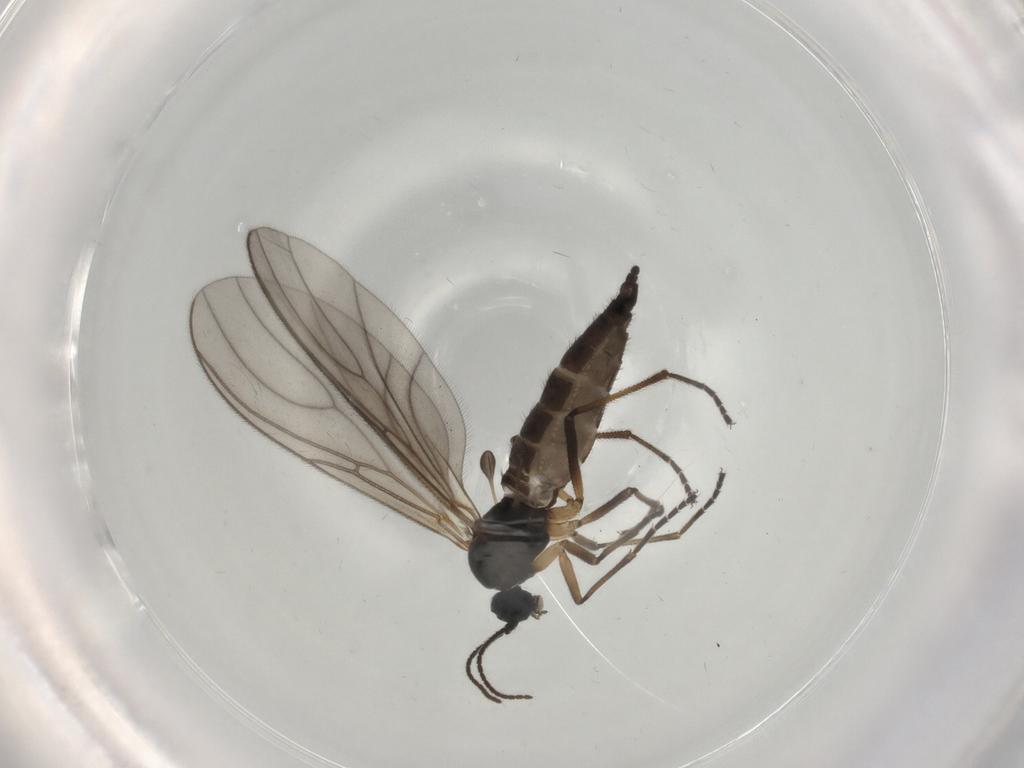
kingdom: Animalia
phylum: Arthropoda
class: Insecta
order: Diptera
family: Sciaridae
